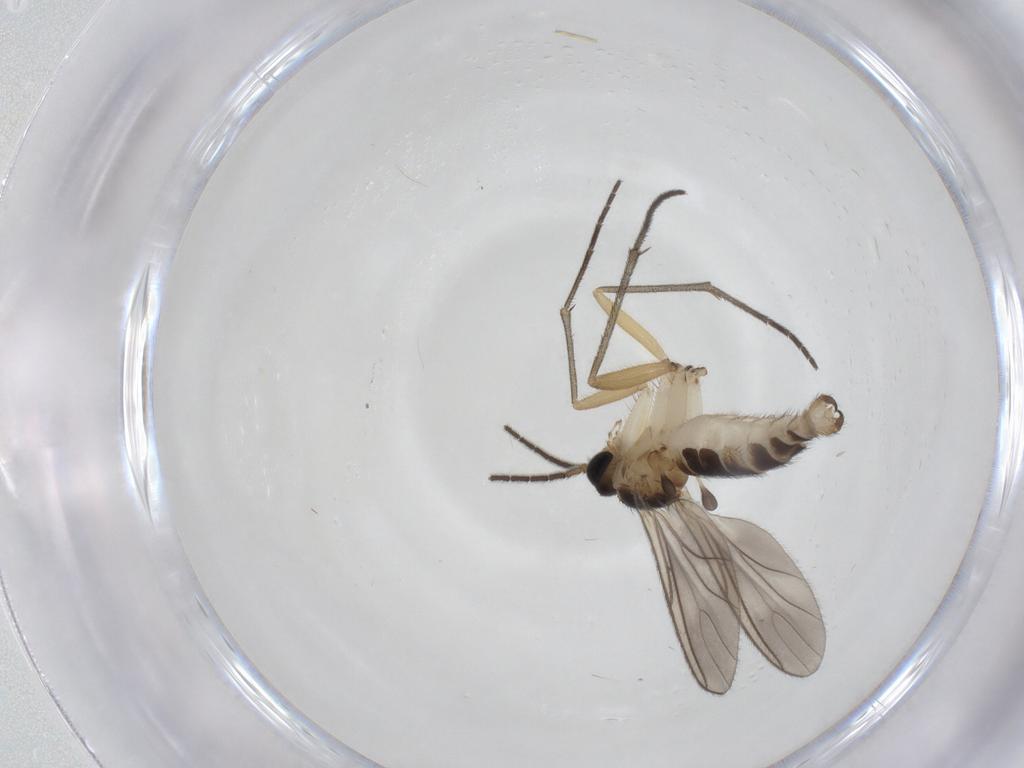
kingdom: Animalia
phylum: Arthropoda
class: Insecta
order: Diptera
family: Sciaridae
